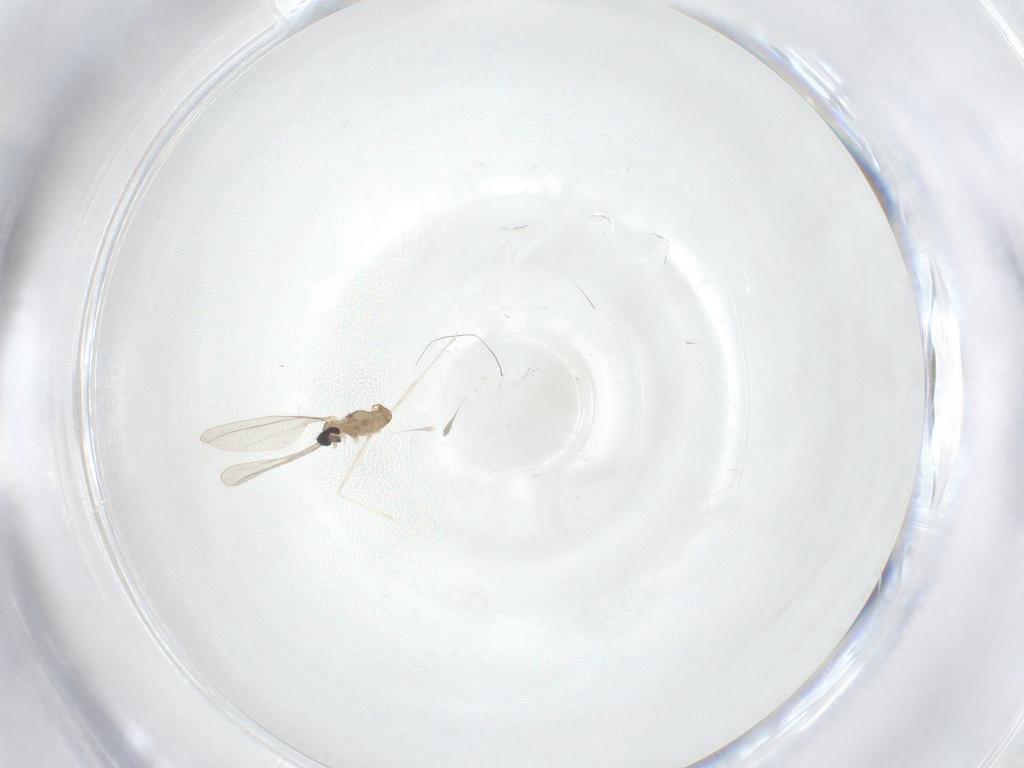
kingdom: Animalia
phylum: Arthropoda
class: Insecta
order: Diptera
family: Cecidomyiidae
